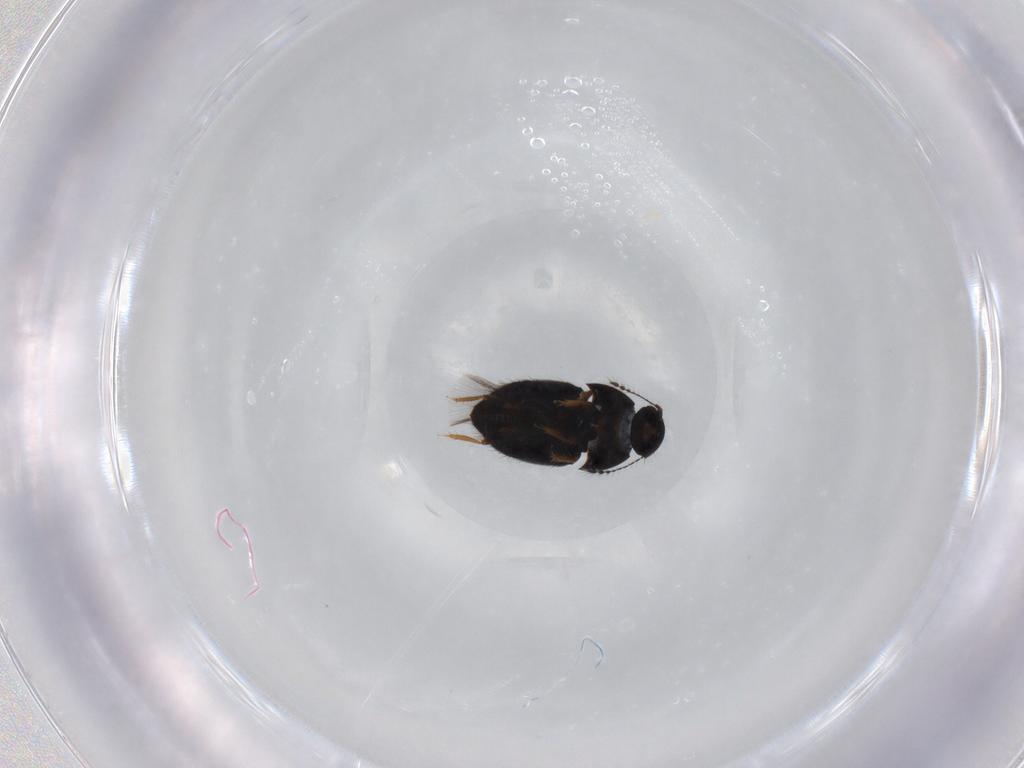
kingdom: Animalia
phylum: Arthropoda
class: Insecta
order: Coleoptera
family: Ptiliidae
